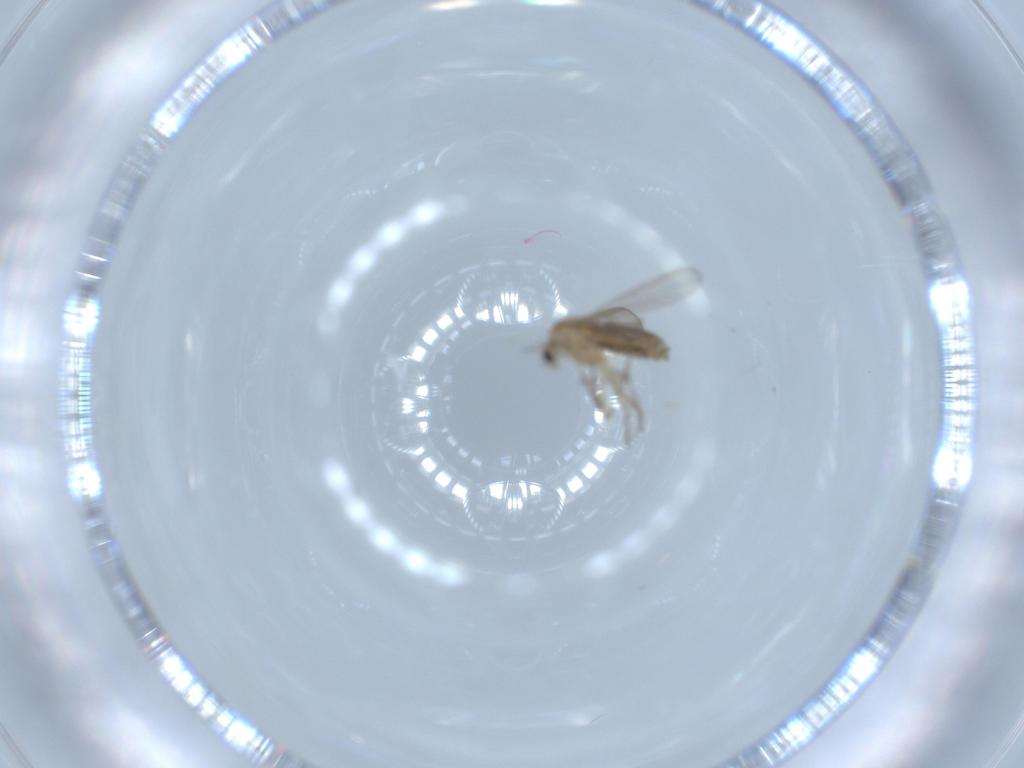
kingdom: Animalia
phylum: Arthropoda
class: Insecta
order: Diptera
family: Chironomidae
